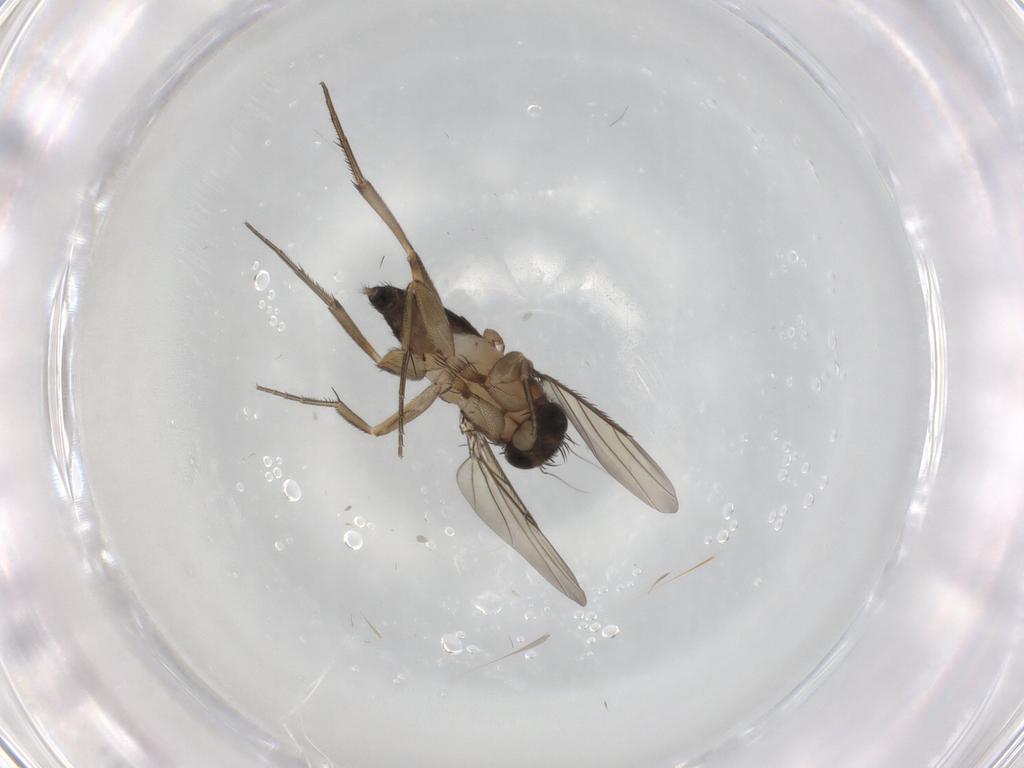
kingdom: Animalia
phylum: Arthropoda
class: Insecta
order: Diptera
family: Phoridae
